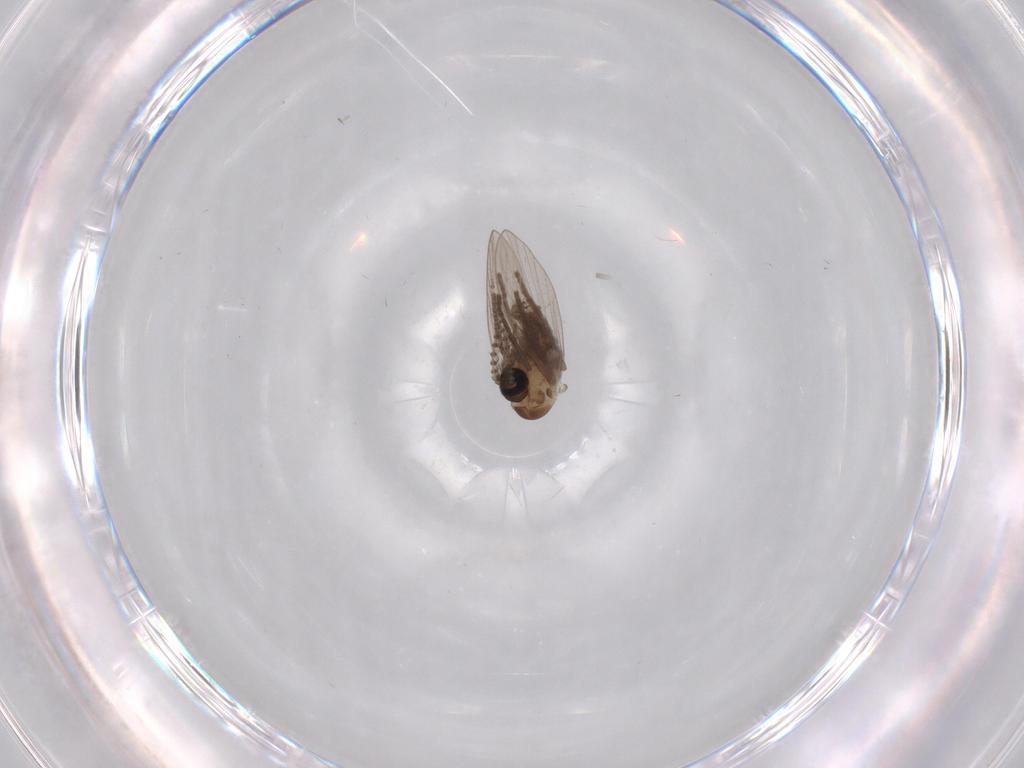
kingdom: Animalia
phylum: Arthropoda
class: Insecta
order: Diptera
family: Psychodidae
